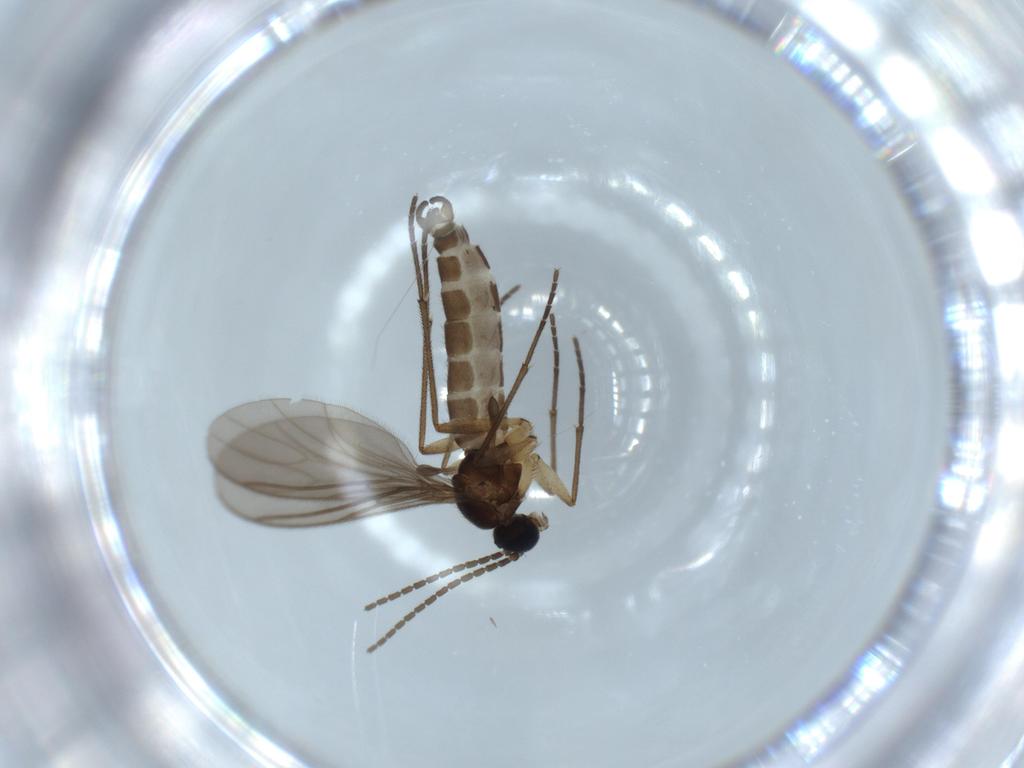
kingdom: Animalia
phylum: Arthropoda
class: Insecta
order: Diptera
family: Sciaridae
